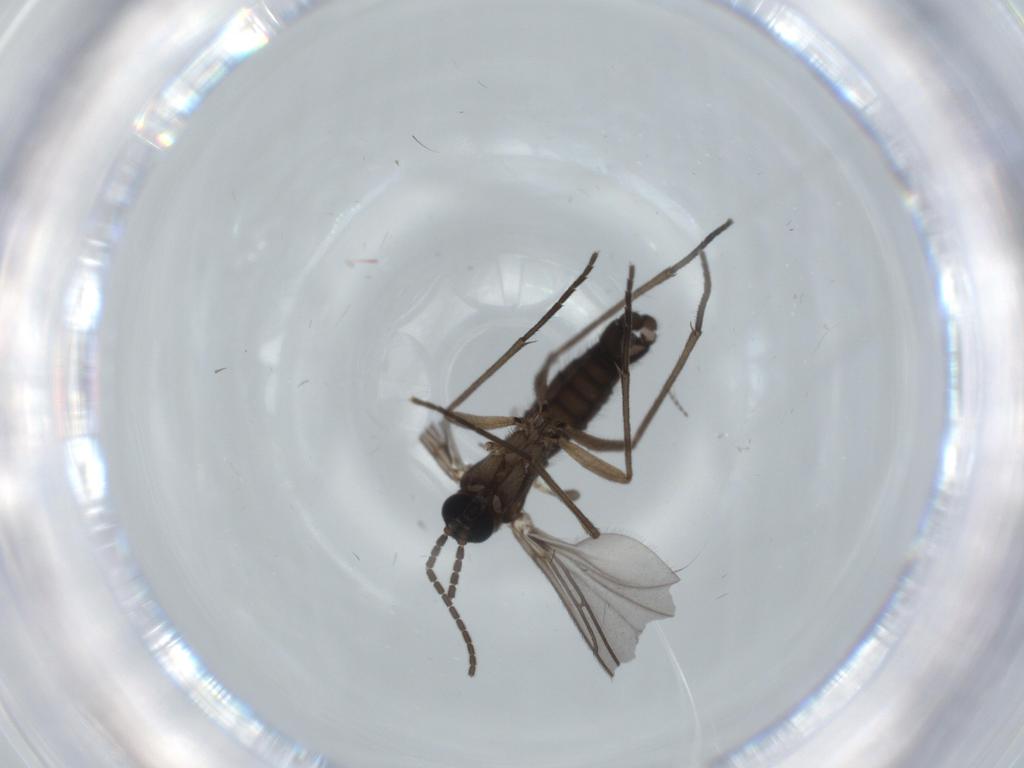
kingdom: Animalia
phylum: Arthropoda
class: Insecta
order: Diptera
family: Sciaridae
